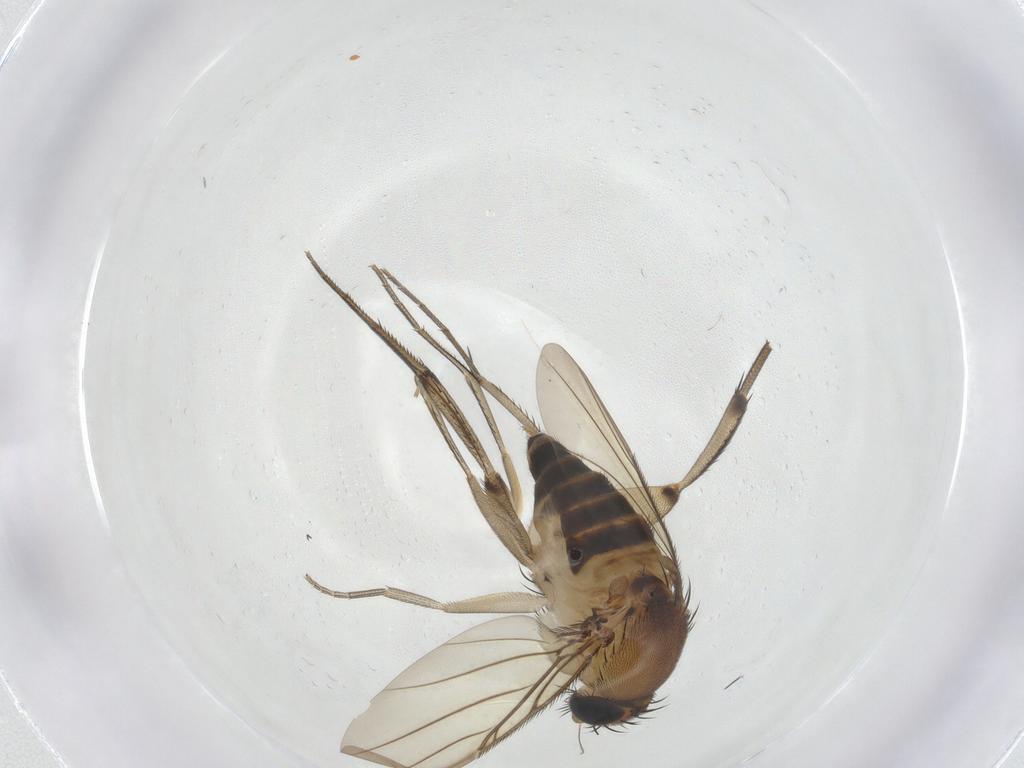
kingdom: Animalia
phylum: Arthropoda
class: Insecta
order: Diptera
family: Phoridae
